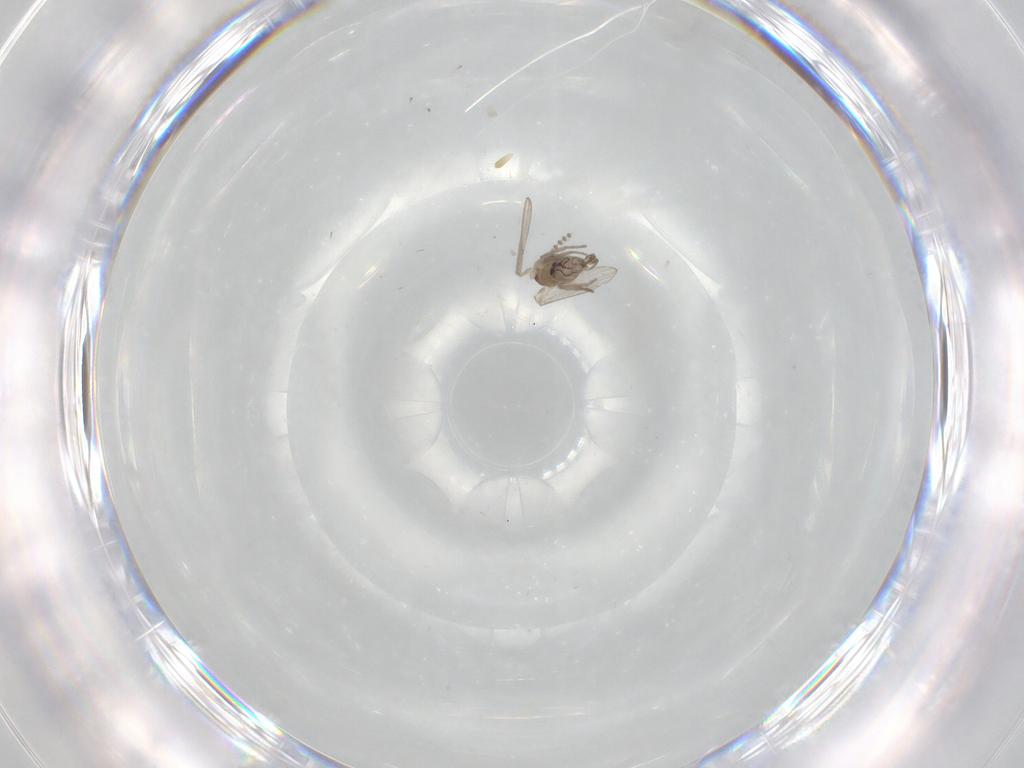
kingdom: Animalia
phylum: Arthropoda
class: Insecta
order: Diptera
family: Psychodidae
